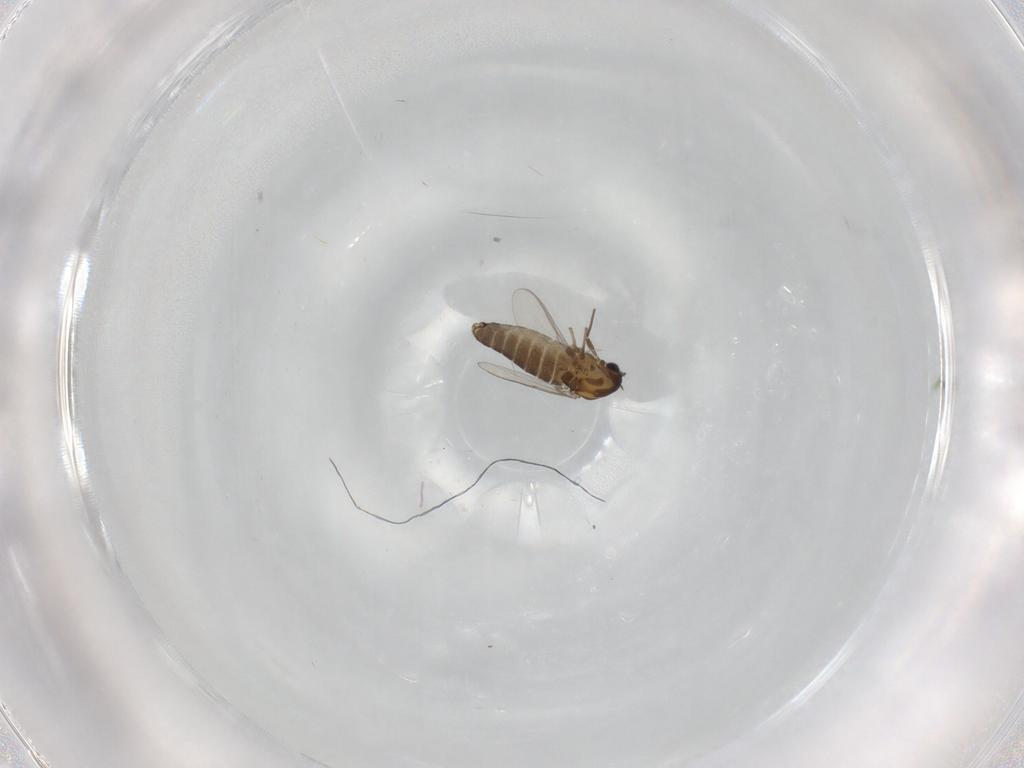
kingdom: Animalia
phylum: Arthropoda
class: Insecta
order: Diptera
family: Chironomidae
